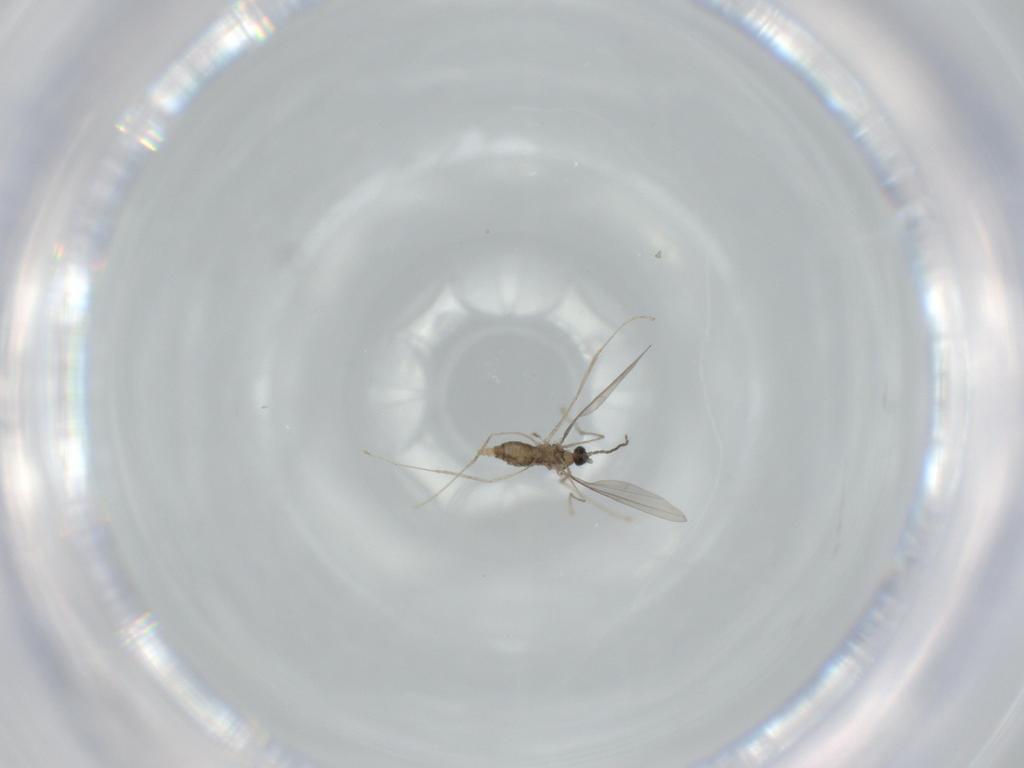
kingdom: Animalia
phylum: Arthropoda
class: Insecta
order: Diptera
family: Cecidomyiidae
